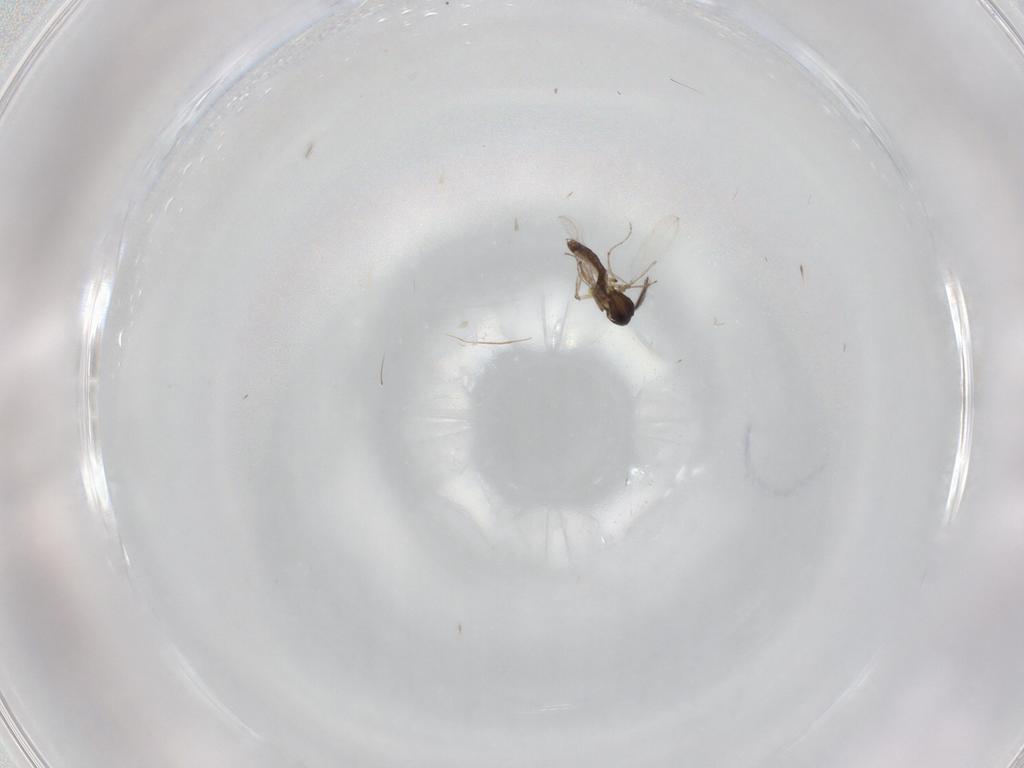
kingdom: Animalia
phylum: Arthropoda
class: Insecta
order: Diptera
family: Ceratopogonidae
